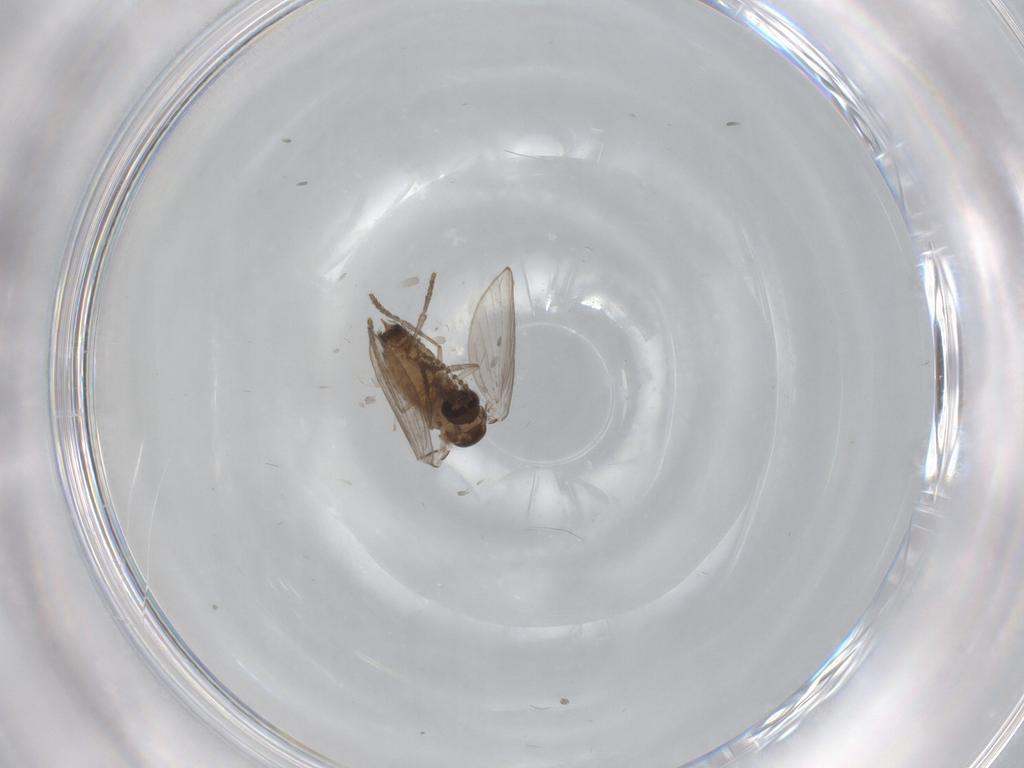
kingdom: Animalia
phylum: Arthropoda
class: Insecta
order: Diptera
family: Psychodidae
